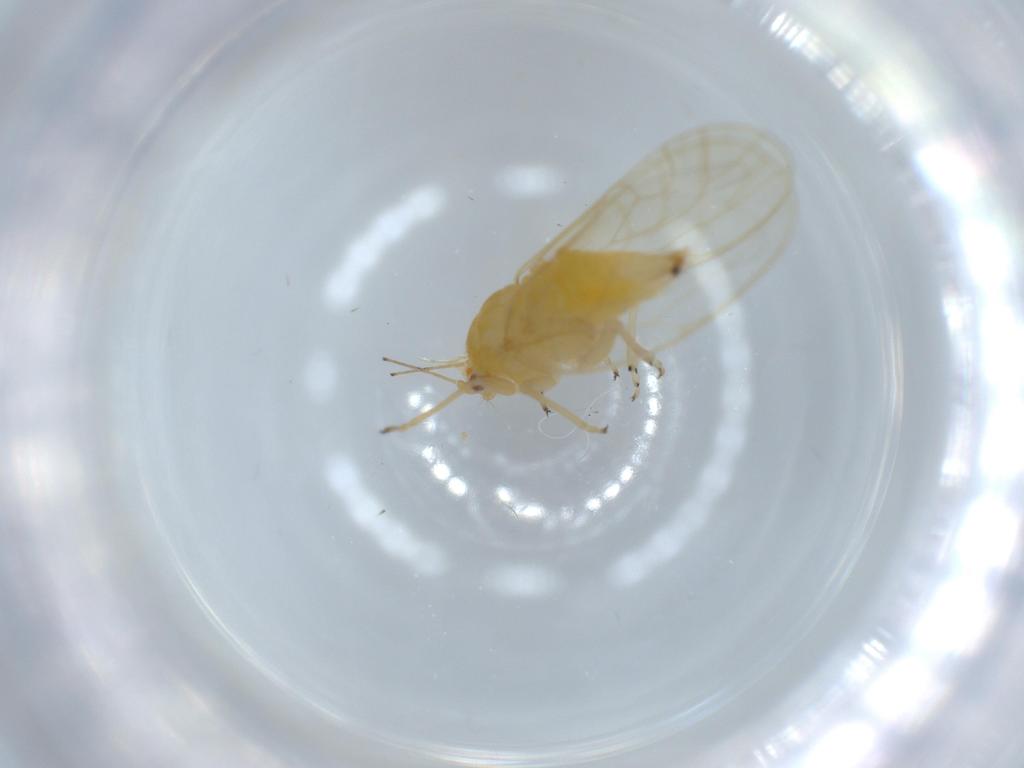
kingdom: Animalia
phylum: Arthropoda
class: Insecta
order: Hemiptera
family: Psyllidae
